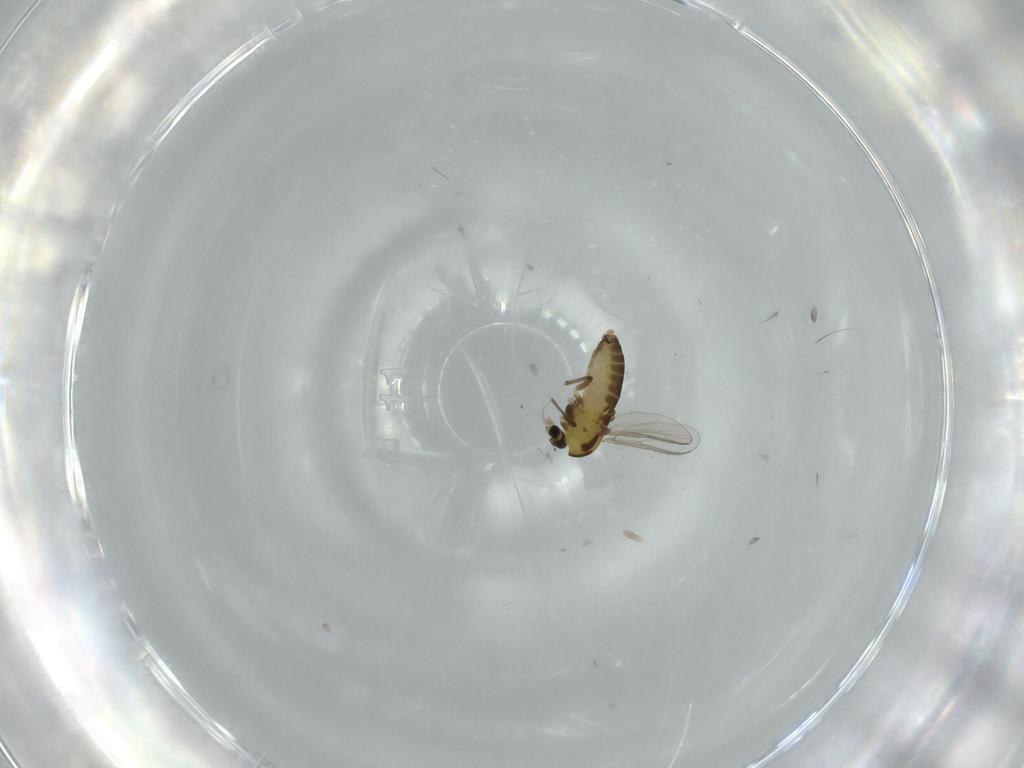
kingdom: Animalia
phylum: Arthropoda
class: Insecta
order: Diptera
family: Chironomidae
